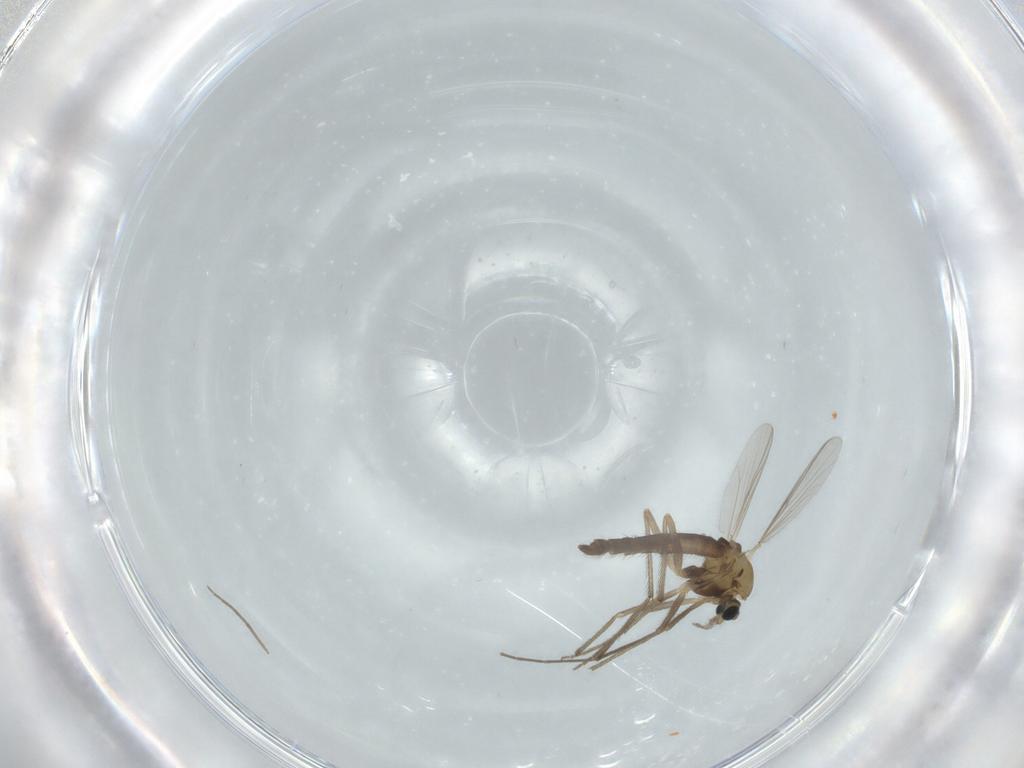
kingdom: Animalia
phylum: Arthropoda
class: Insecta
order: Diptera
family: Chironomidae
